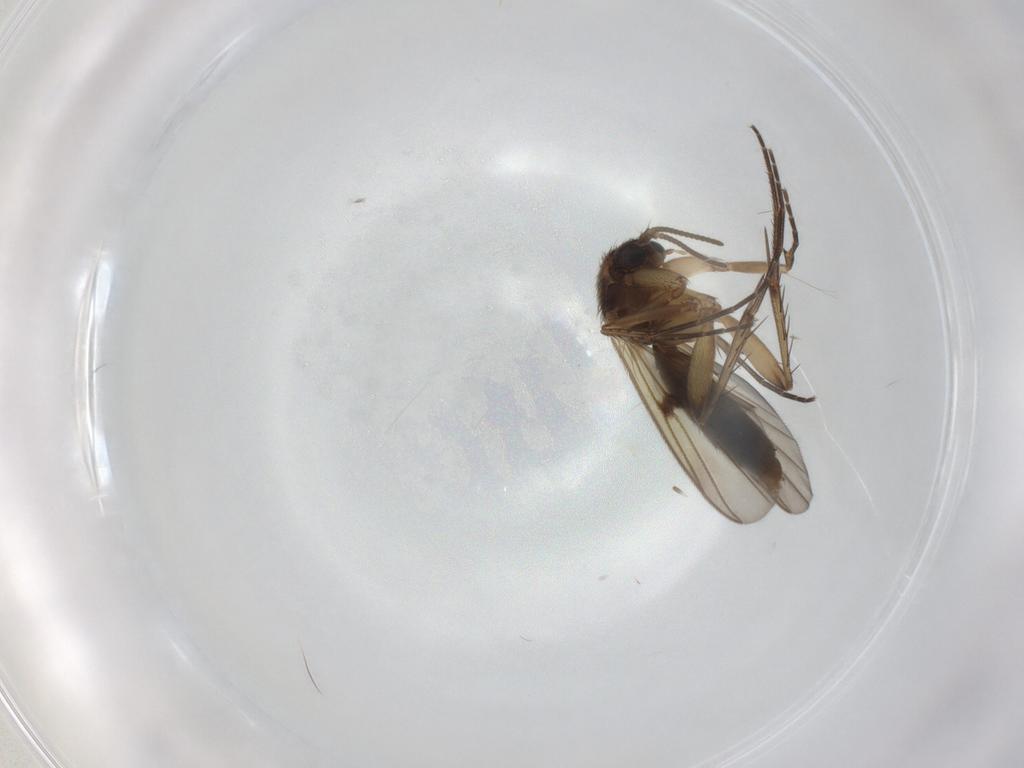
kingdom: Animalia
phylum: Arthropoda
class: Insecta
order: Diptera
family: Mycetophilidae
